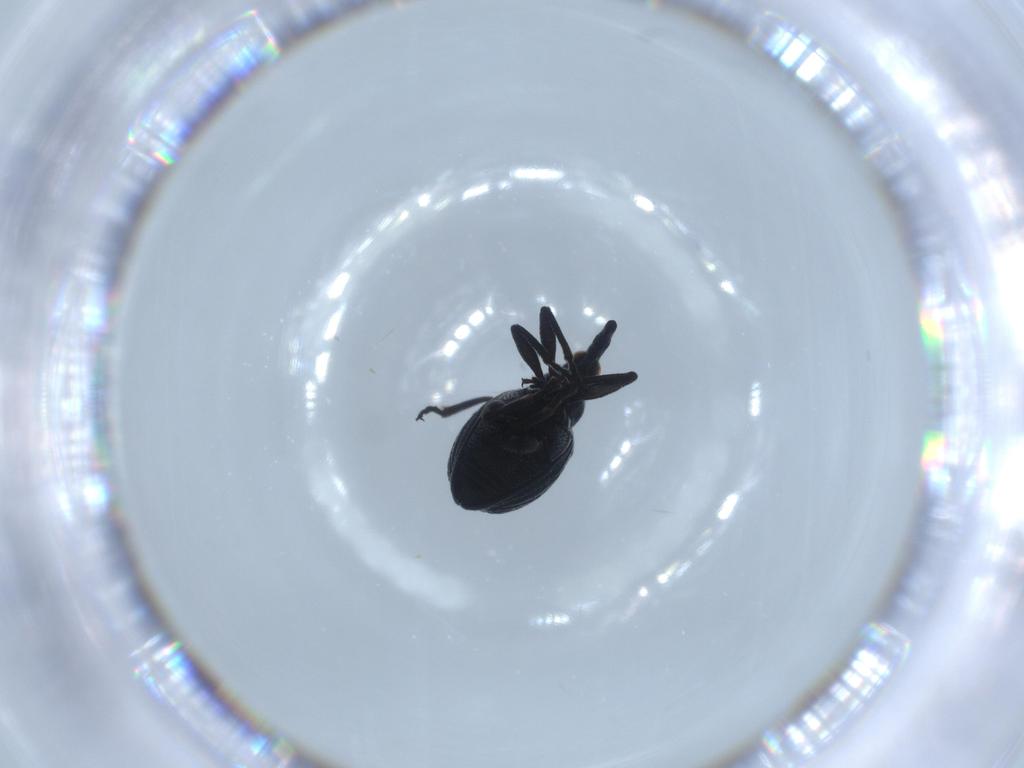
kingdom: Animalia
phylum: Arthropoda
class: Insecta
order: Coleoptera
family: Brentidae
